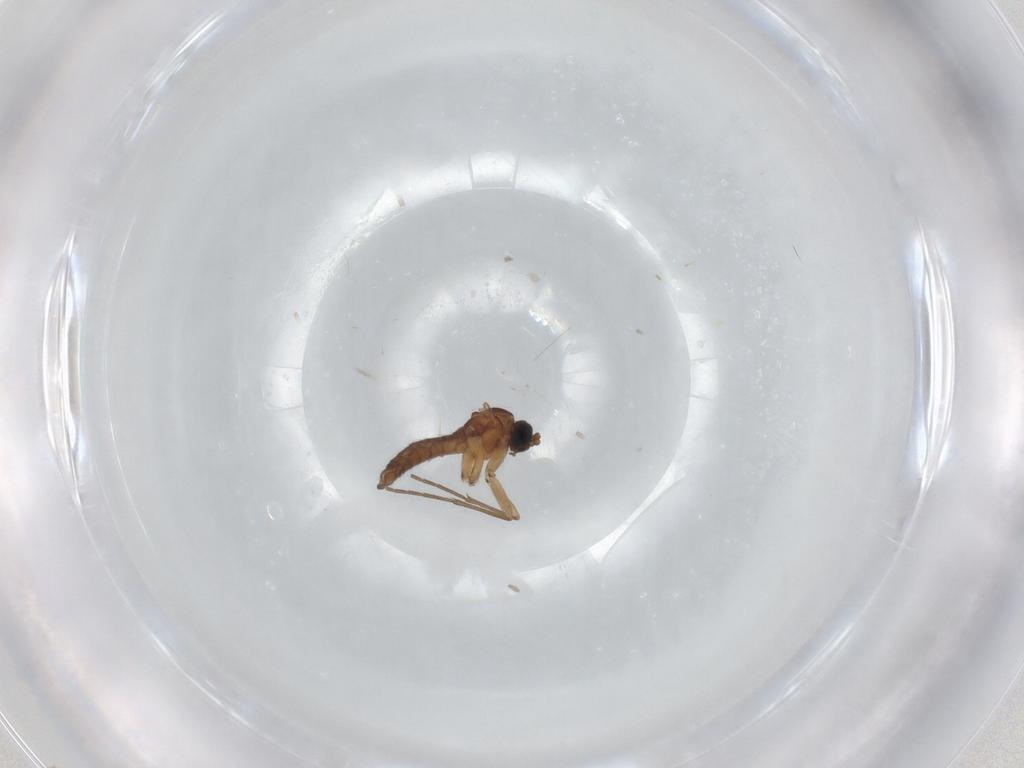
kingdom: Animalia
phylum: Arthropoda
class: Insecta
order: Diptera
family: Sciaridae
